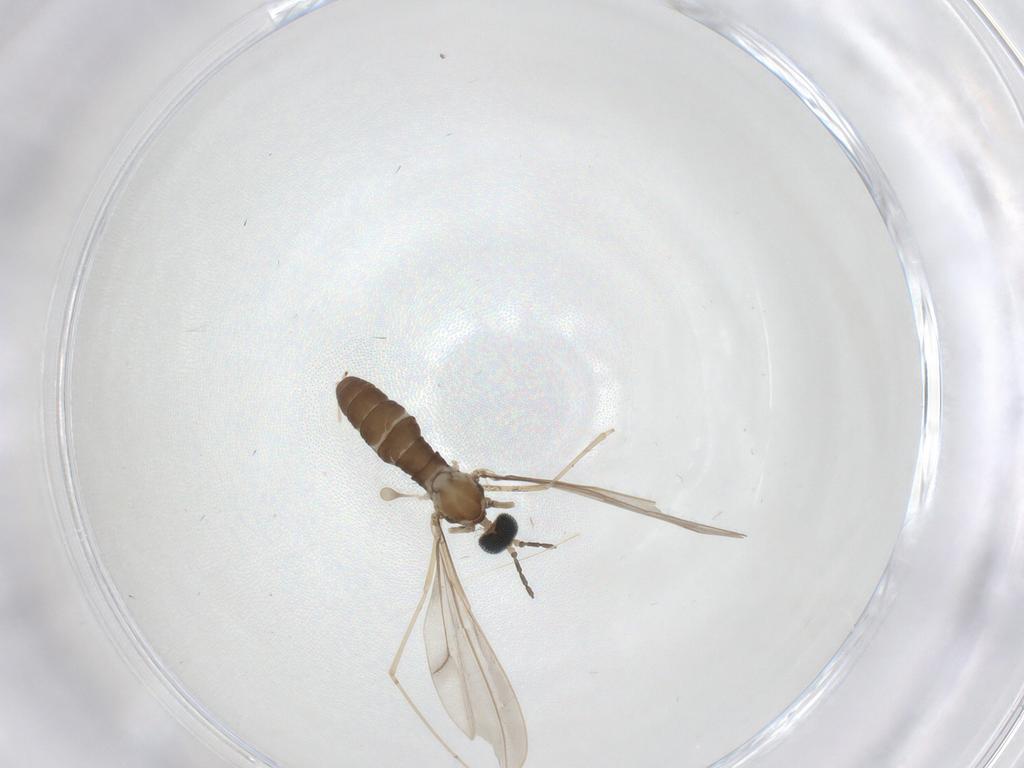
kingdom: Animalia
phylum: Arthropoda
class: Insecta
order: Diptera
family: Cecidomyiidae
